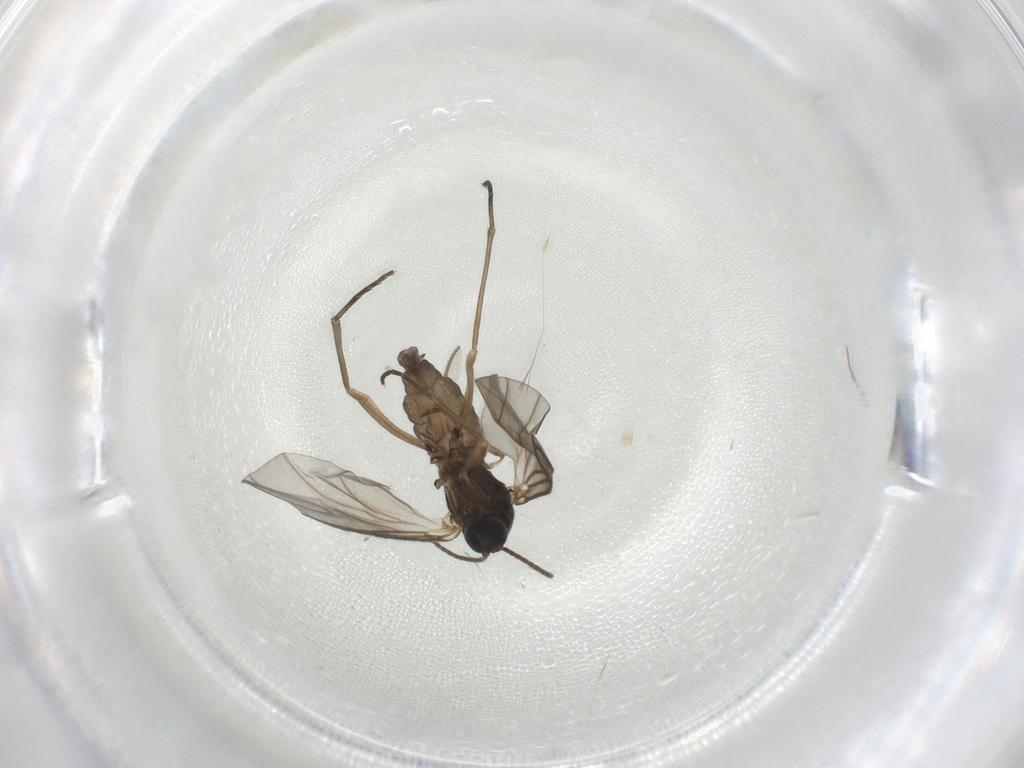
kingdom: Animalia
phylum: Arthropoda
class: Insecta
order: Diptera
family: Sciaridae
